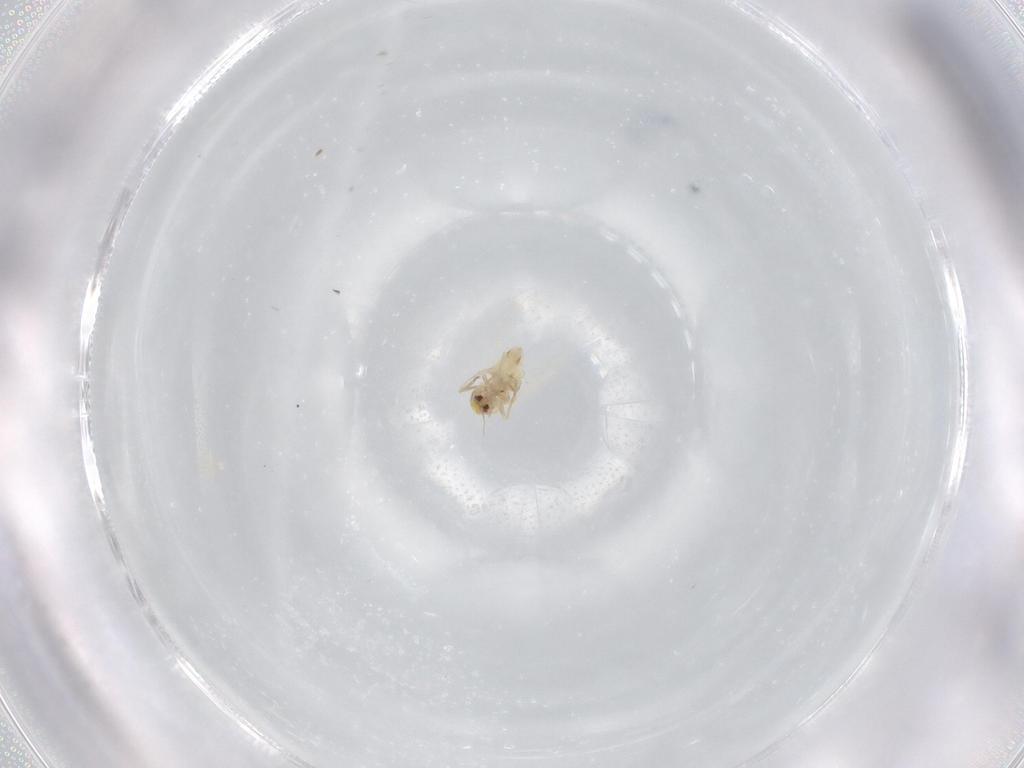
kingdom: Animalia
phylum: Arthropoda
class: Insecta
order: Hemiptera
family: Aleyrodidae
